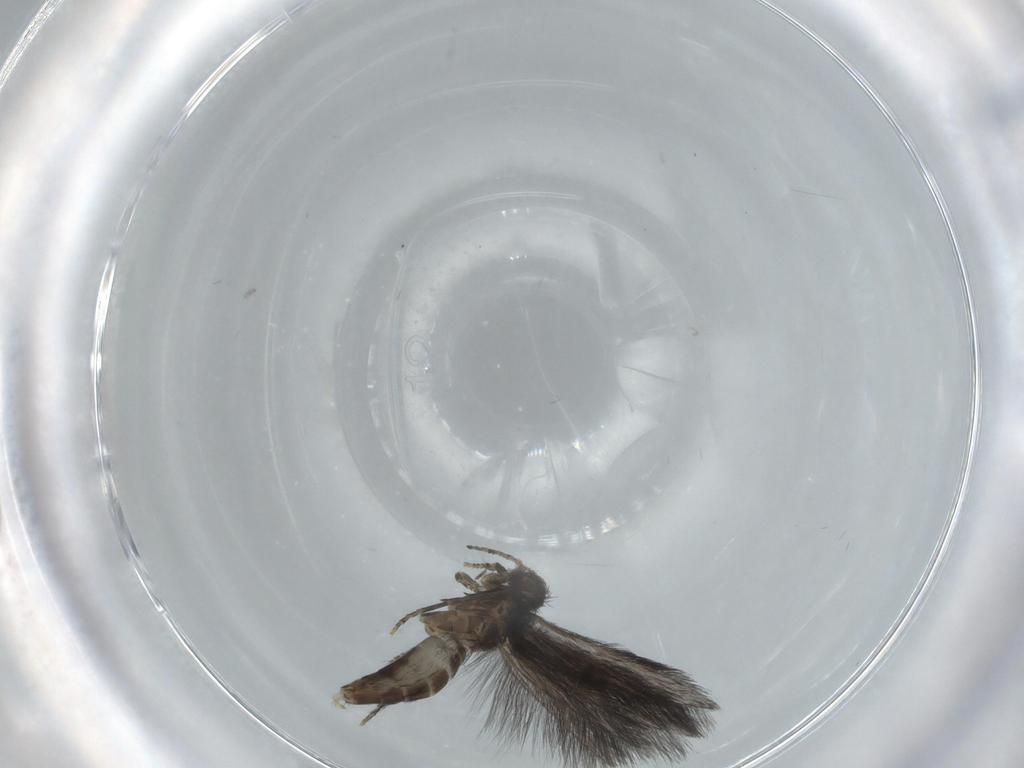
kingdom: Animalia
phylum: Arthropoda
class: Insecta
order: Trichoptera
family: Hydroptilidae
